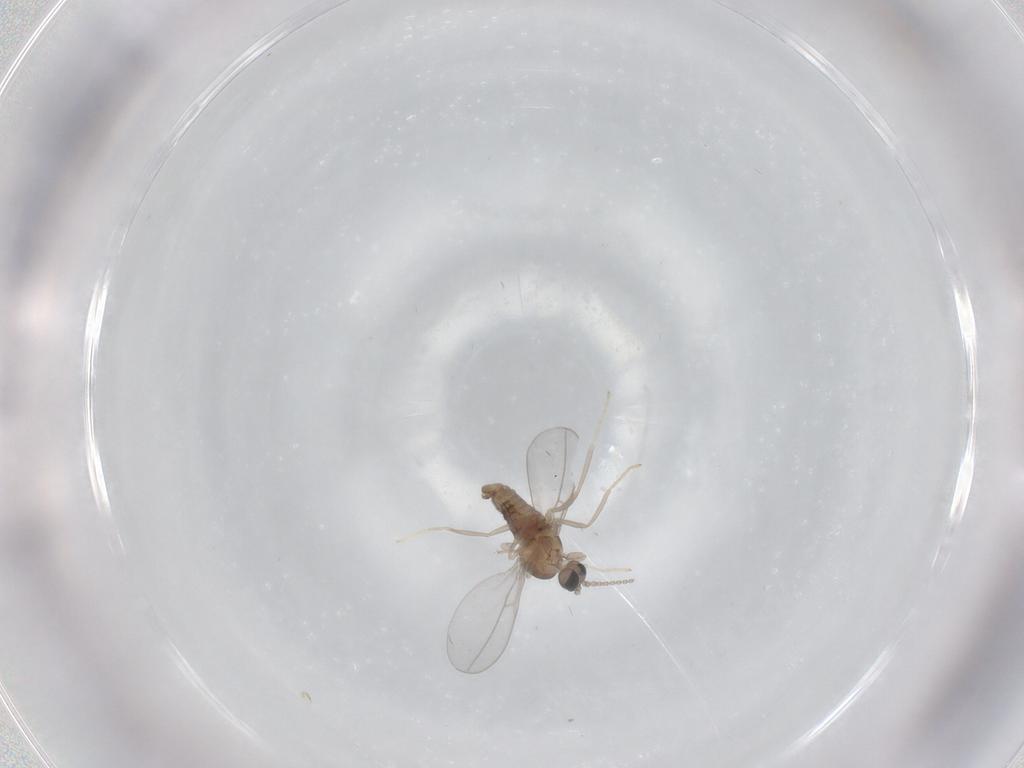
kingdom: Animalia
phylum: Arthropoda
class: Insecta
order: Diptera
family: Cecidomyiidae
